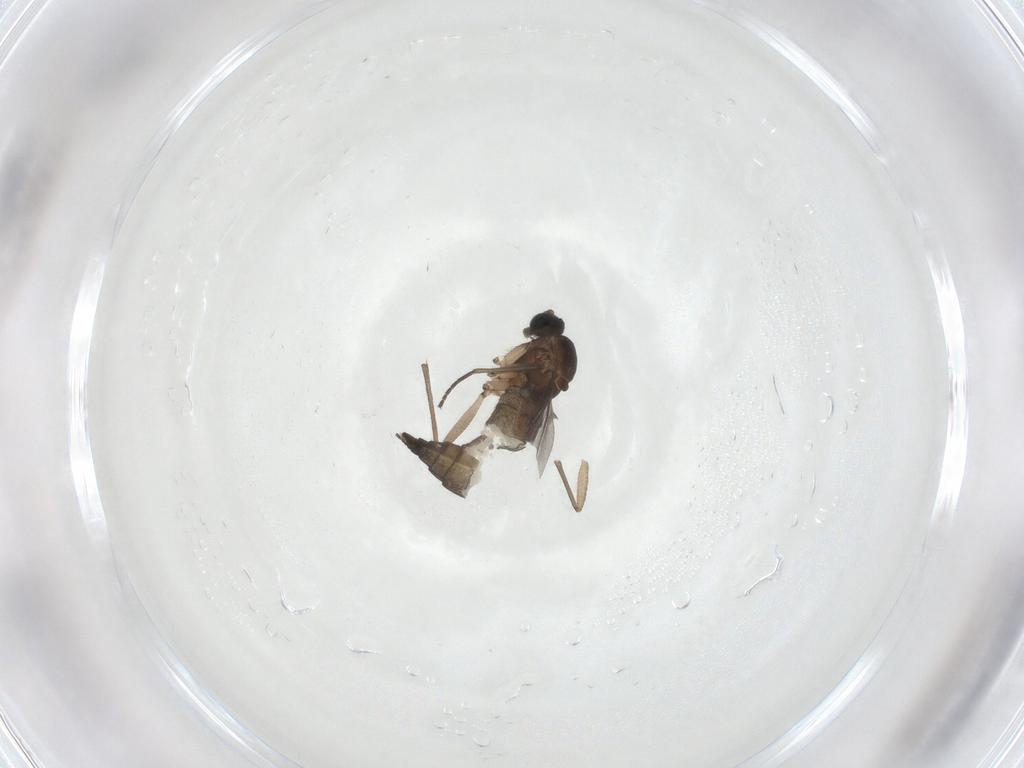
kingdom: Animalia
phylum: Arthropoda
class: Insecta
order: Diptera
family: Sciaridae
